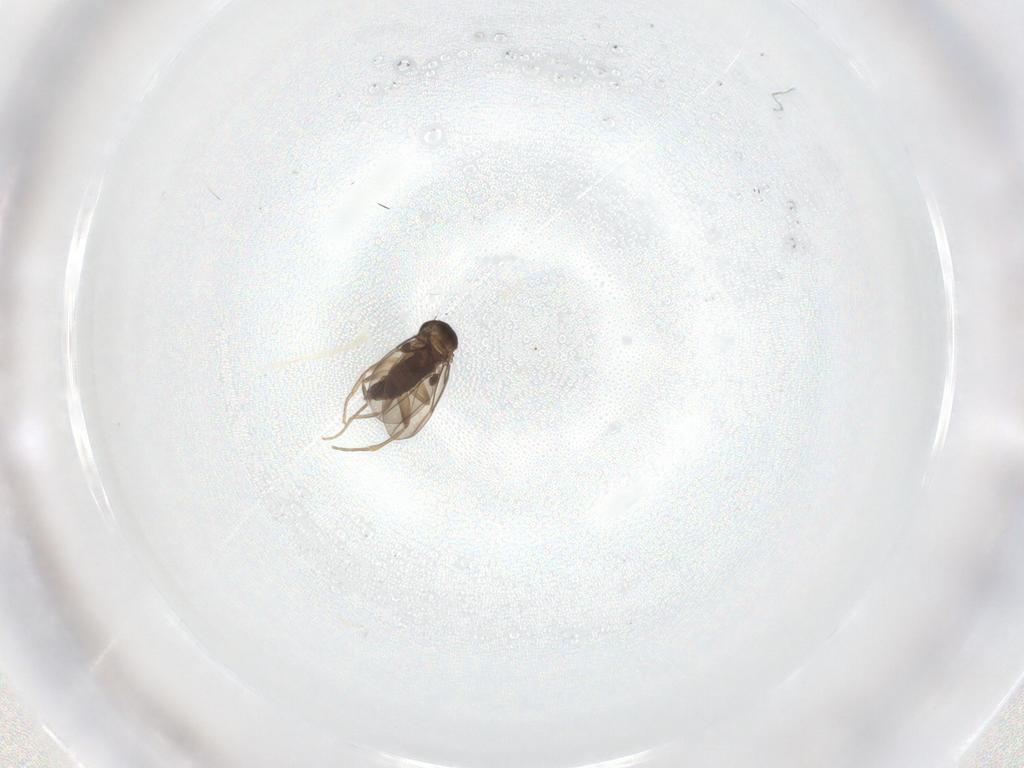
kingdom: Animalia
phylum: Arthropoda
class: Insecta
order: Diptera
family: Phoridae
